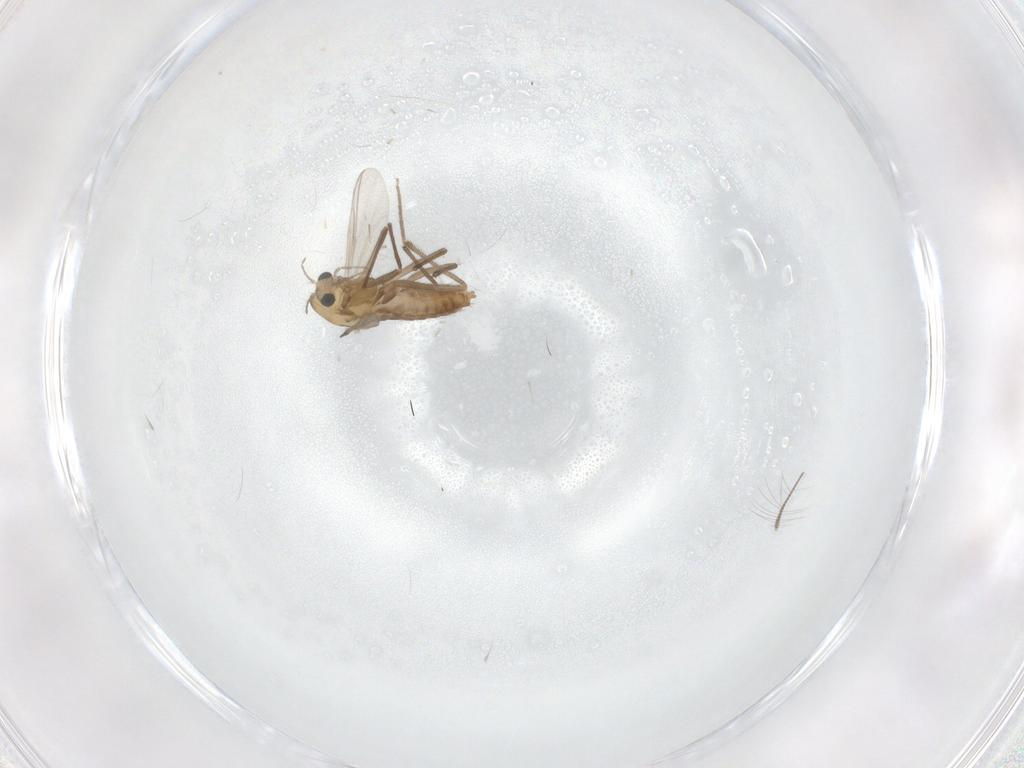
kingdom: Animalia
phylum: Arthropoda
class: Insecta
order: Diptera
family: Chironomidae
